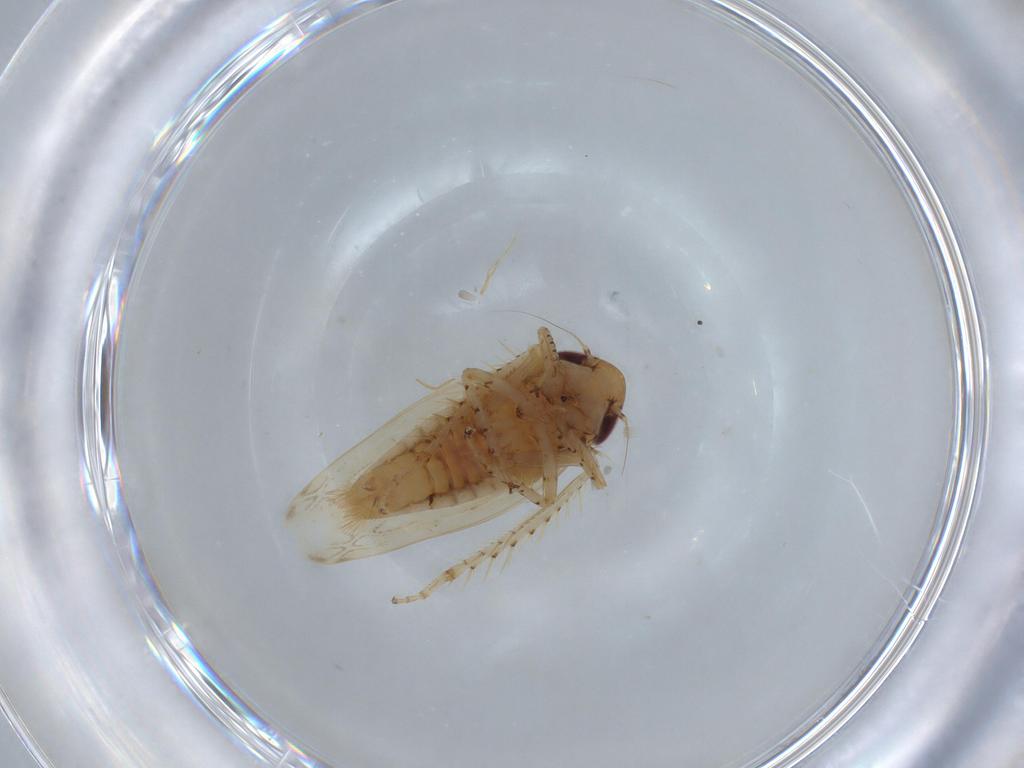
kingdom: Animalia
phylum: Arthropoda
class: Insecta
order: Hemiptera
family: Cicadellidae
